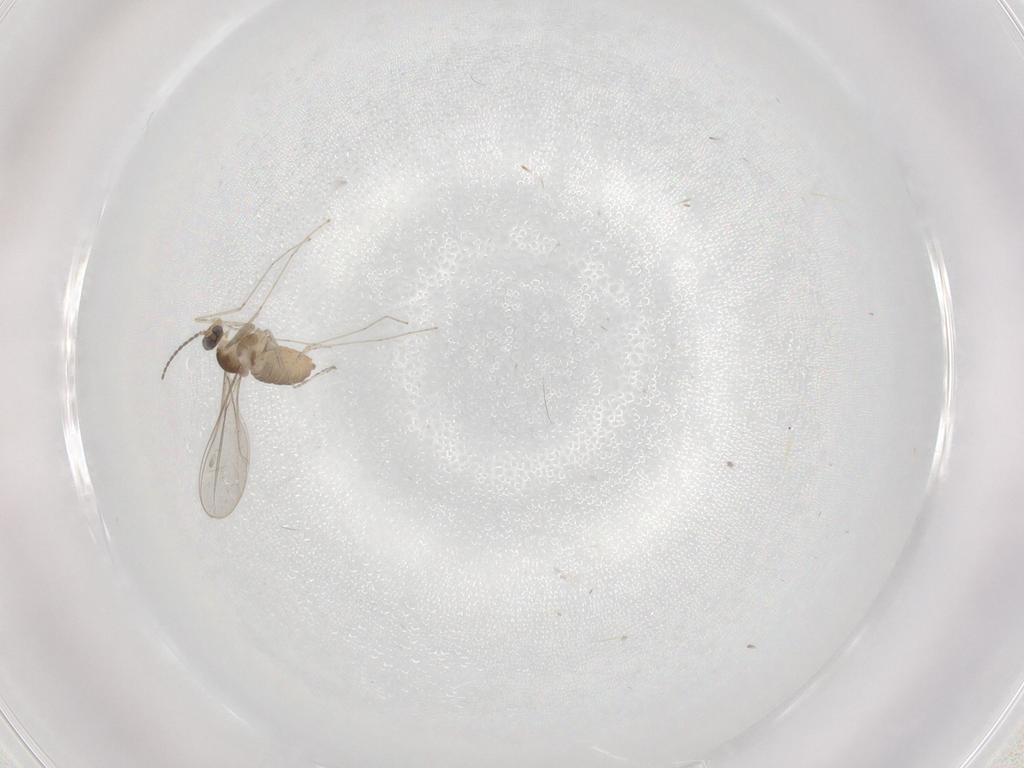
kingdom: Animalia
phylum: Arthropoda
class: Insecta
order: Diptera
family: Cecidomyiidae
